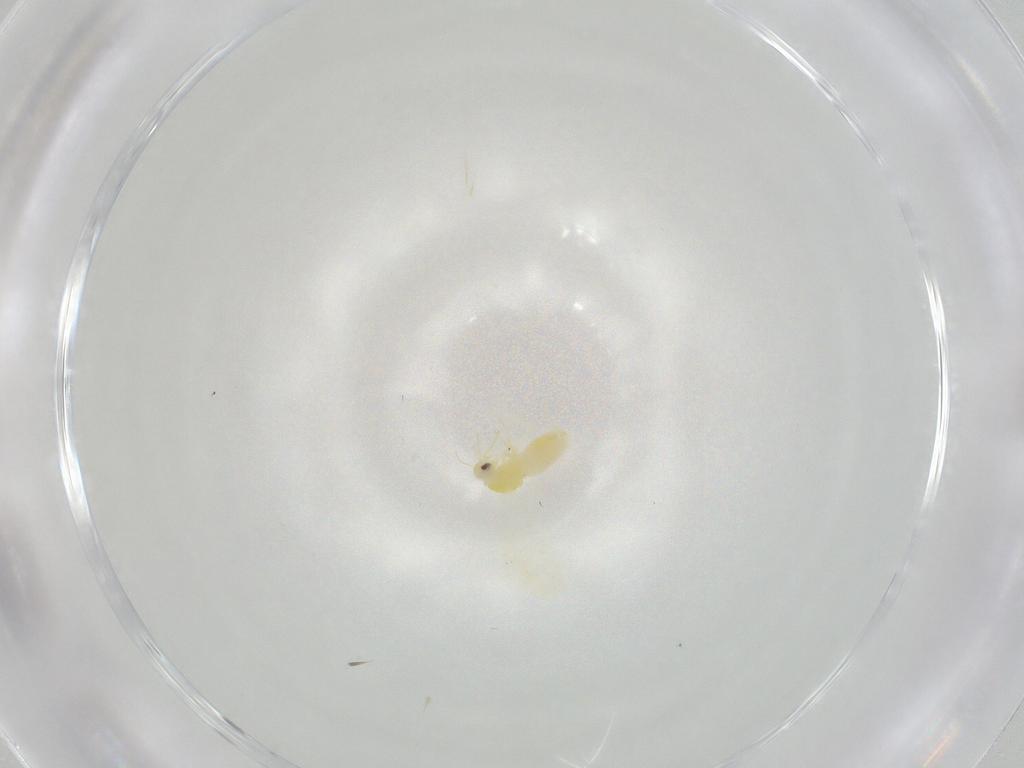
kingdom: Animalia
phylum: Arthropoda
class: Insecta
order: Hemiptera
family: Aleyrodidae
